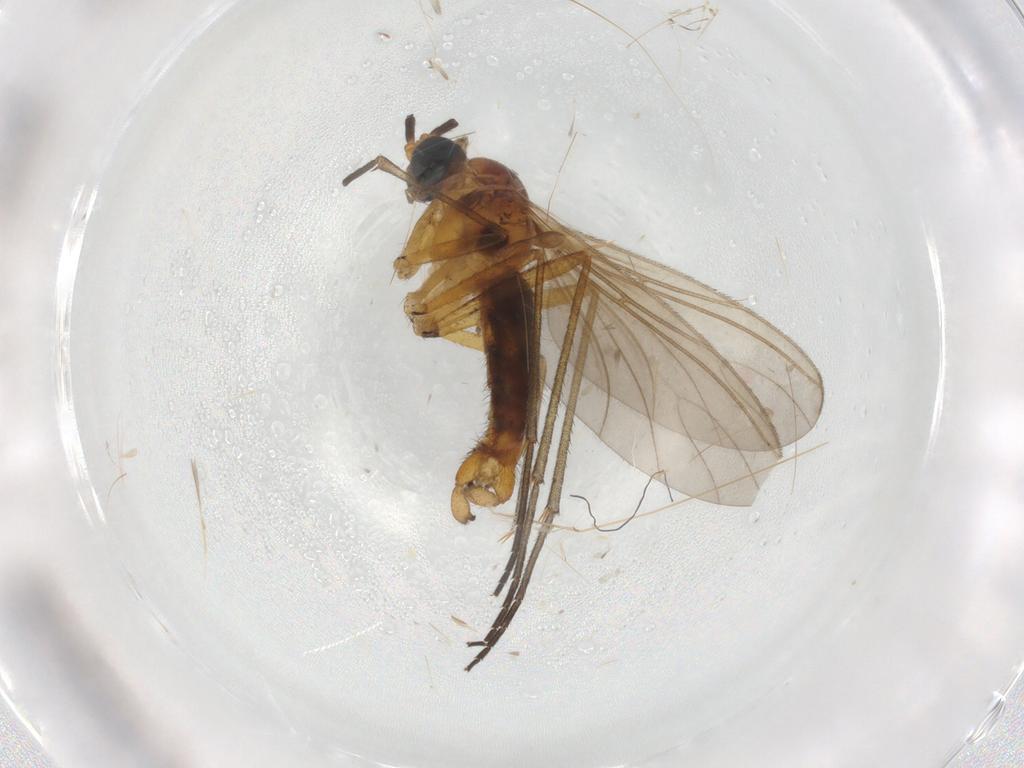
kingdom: Animalia
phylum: Arthropoda
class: Insecta
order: Diptera
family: Sciaridae
